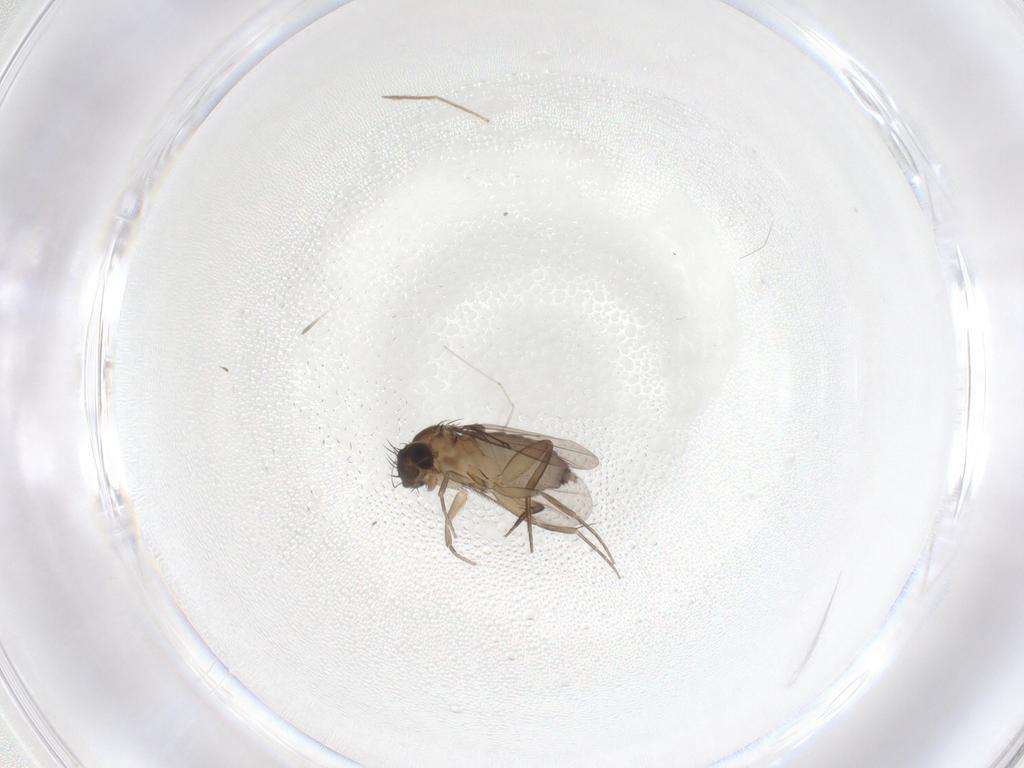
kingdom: Animalia
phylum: Arthropoda
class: Insecta
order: Diptera
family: Phoridae
